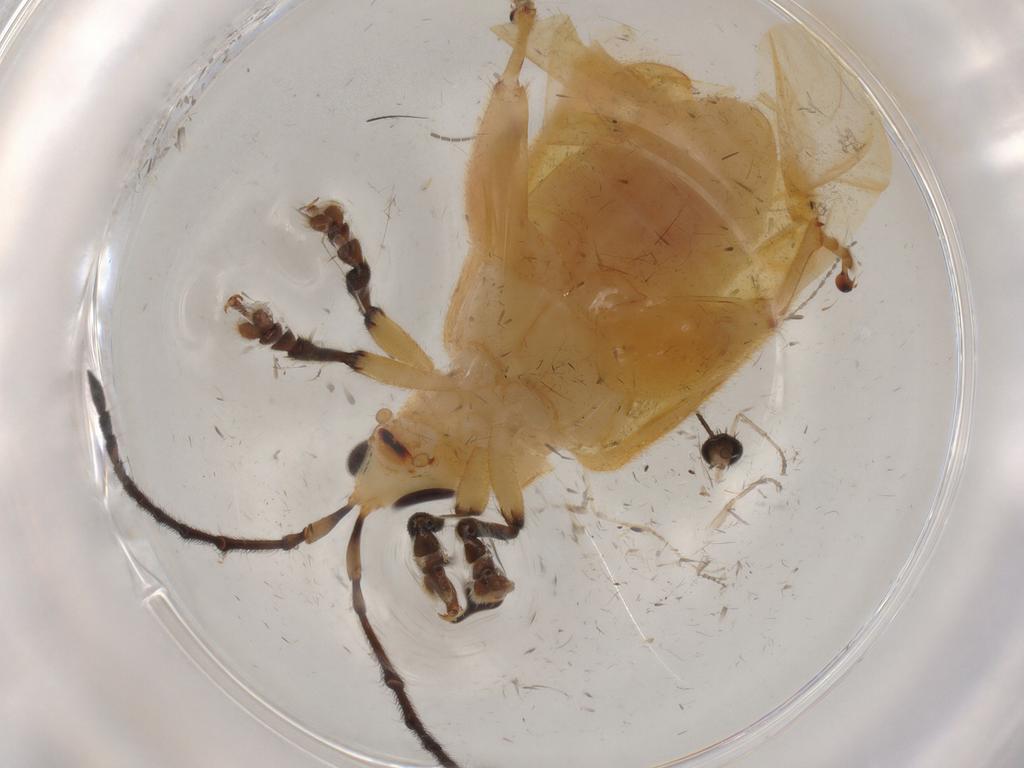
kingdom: Animalia
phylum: Arthropoda
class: Insecta
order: Coleoptera
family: Chrysomelidae
